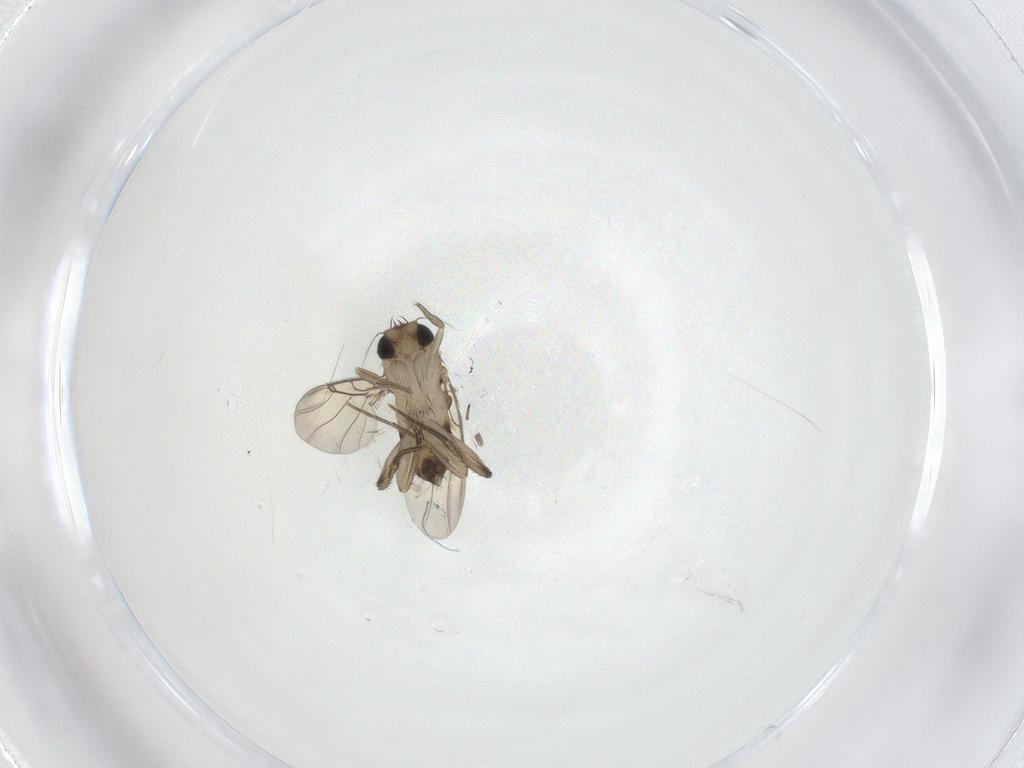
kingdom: Animalia
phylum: Arthropoda
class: Insecta
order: Diptera
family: Phoridae
